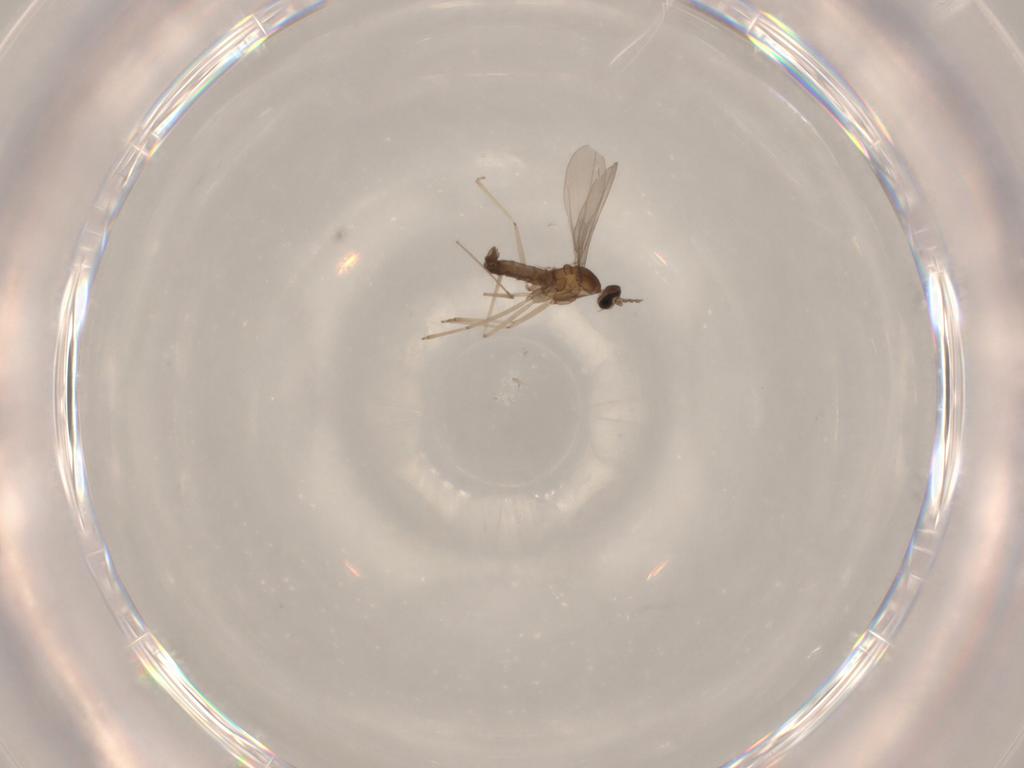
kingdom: Animalia
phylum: Arthropoda
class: Insecta
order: Diptera
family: Cecidomyiidae
